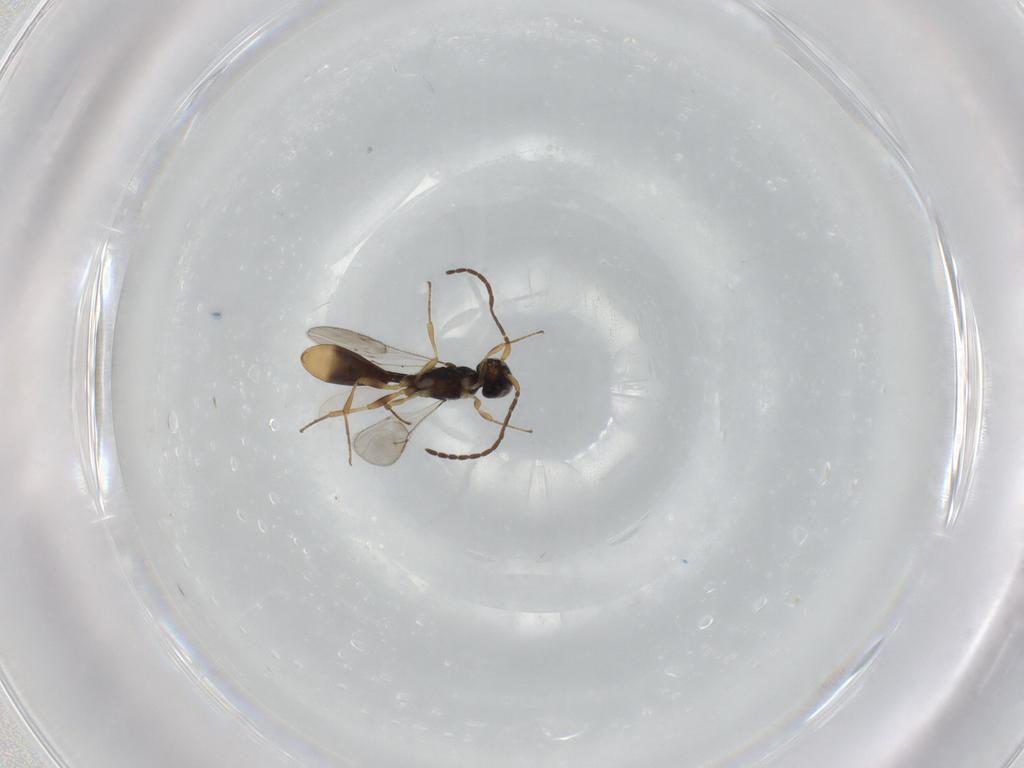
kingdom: Animalia
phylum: Arthropoda
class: Insecta
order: Hymenoptera
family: Scelionidae
